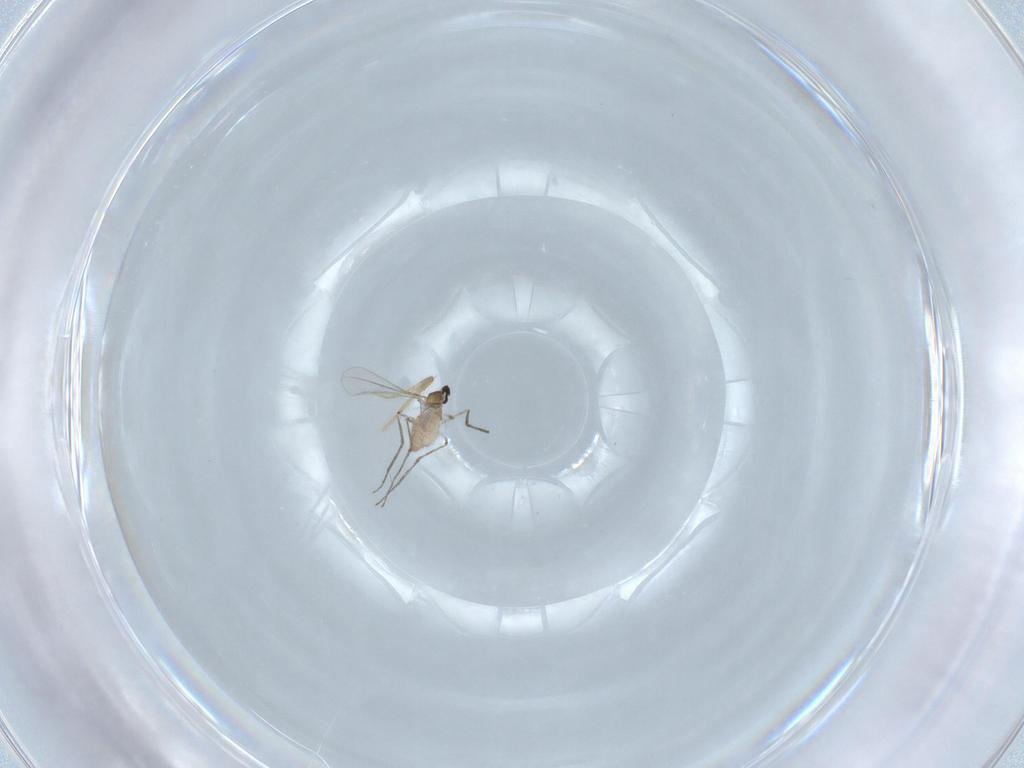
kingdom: Animalia
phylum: Arthropoda
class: Insecta
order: Diptera
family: Cecidomyiidae
